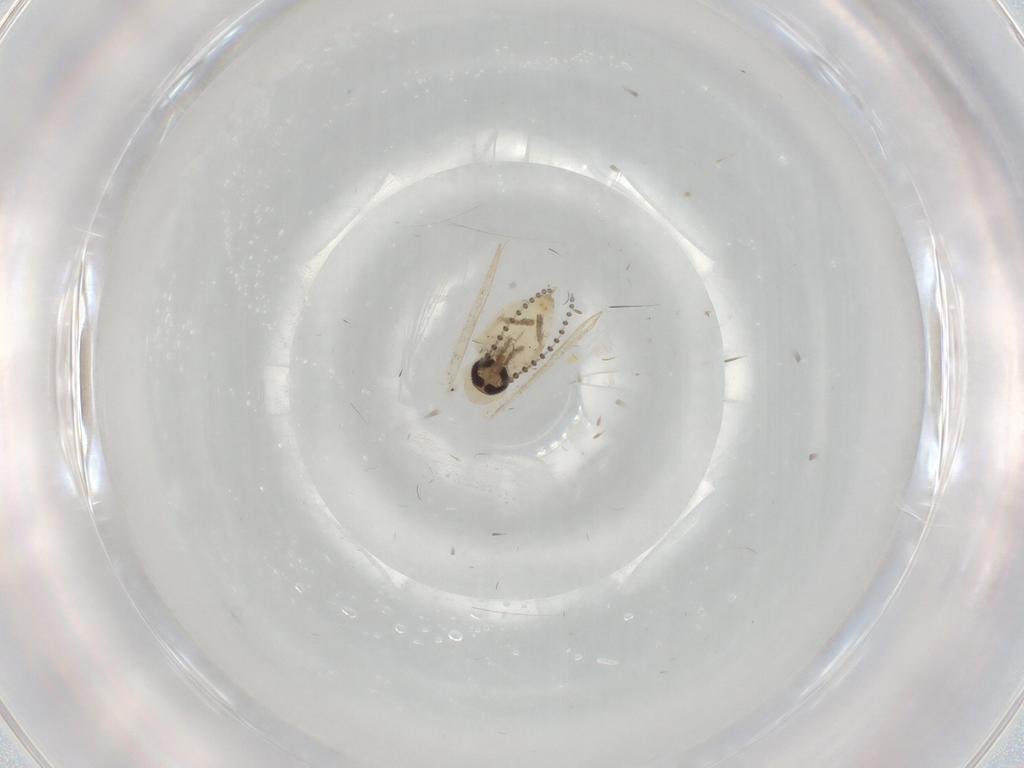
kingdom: Animalia
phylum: Arthropoda
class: Insecta
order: Diptera
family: Psychodidae
